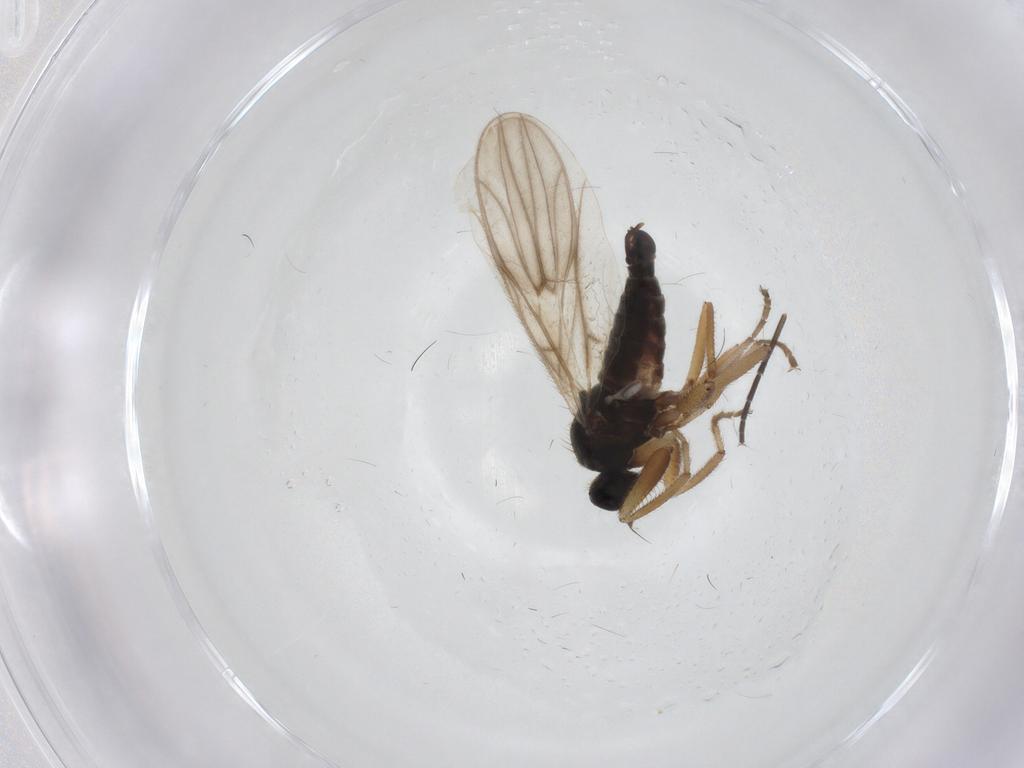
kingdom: Animalia
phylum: Arthropoda
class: Insecta
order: Diptera
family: Hybotidae
